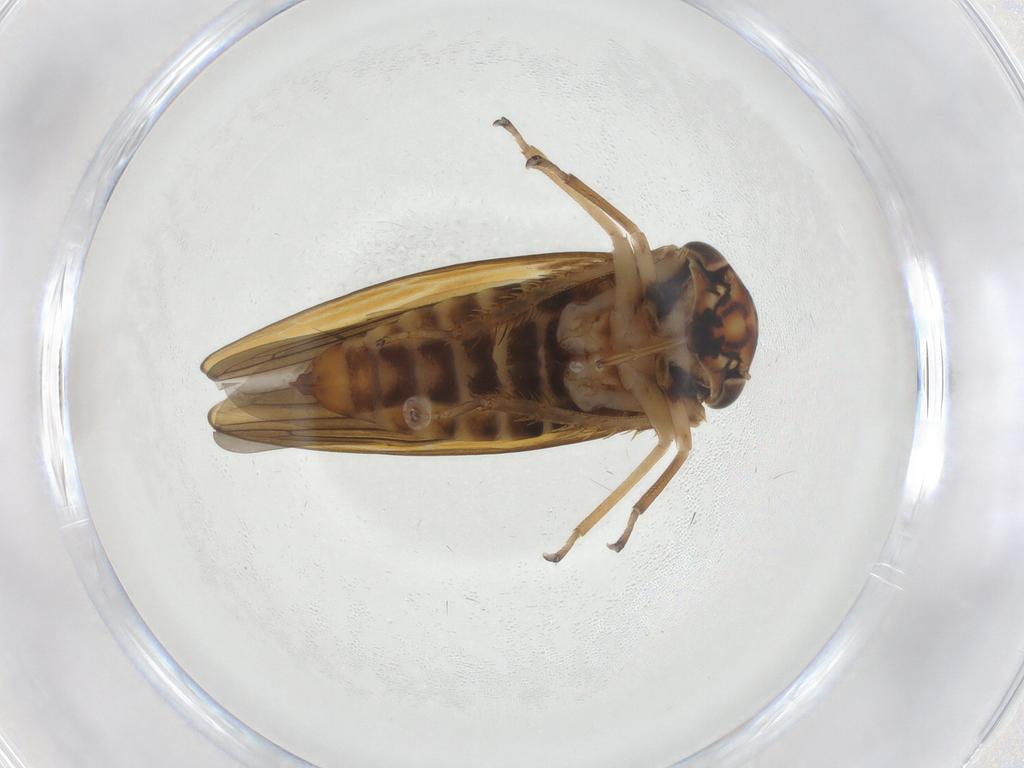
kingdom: Animalia
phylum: Arthropoda
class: Insecta
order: Hemiptera
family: Cicadellidae
